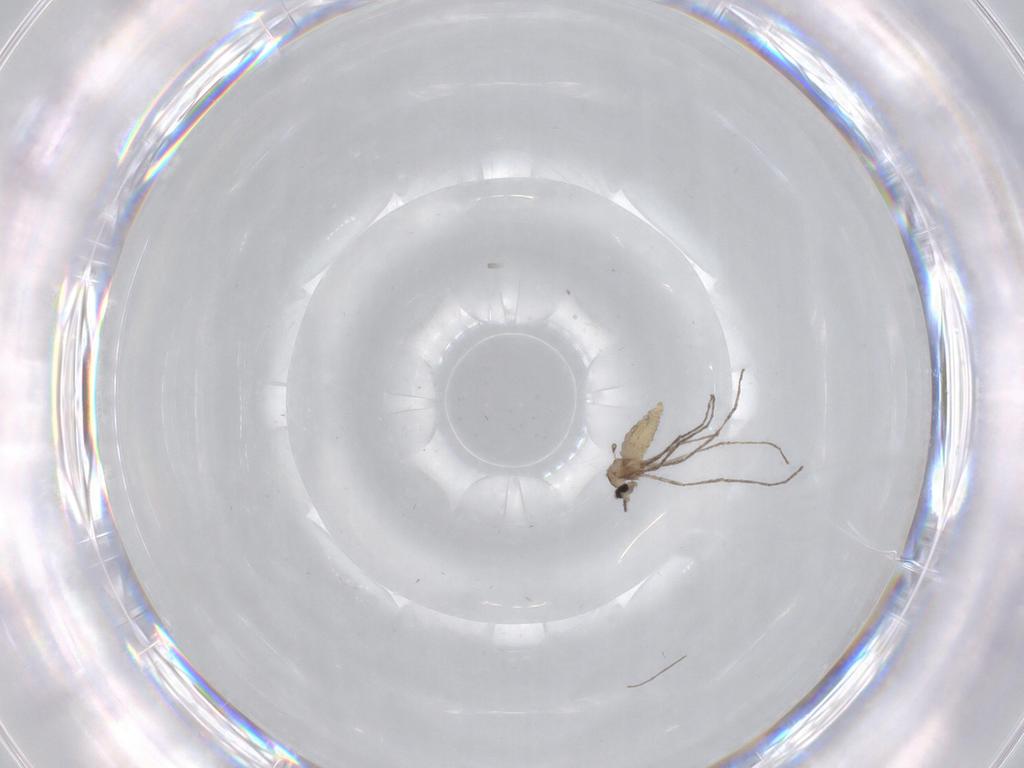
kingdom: Animalia
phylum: Arthropoda
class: Insecta
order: Diptera
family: Chironomidae
